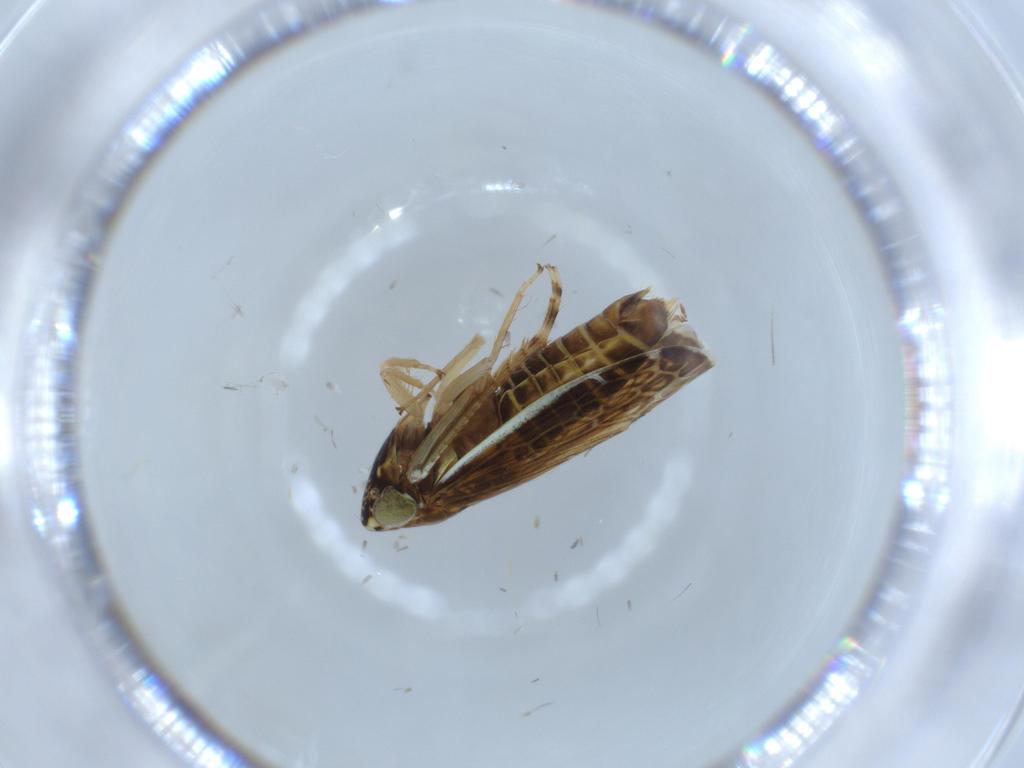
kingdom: Animalia
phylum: Arthropoda
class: Insecta
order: Hemiptera
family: Cicadellidae
